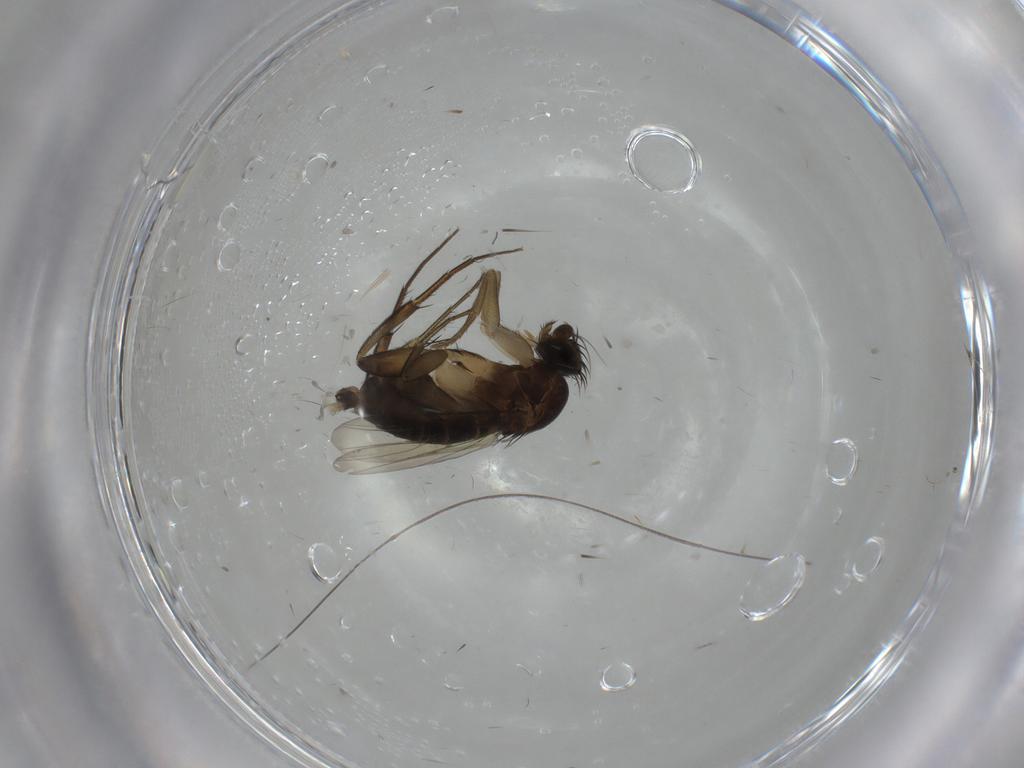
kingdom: Animalia
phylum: Arthropoda
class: Insecta
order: Diptera
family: Phoridae
